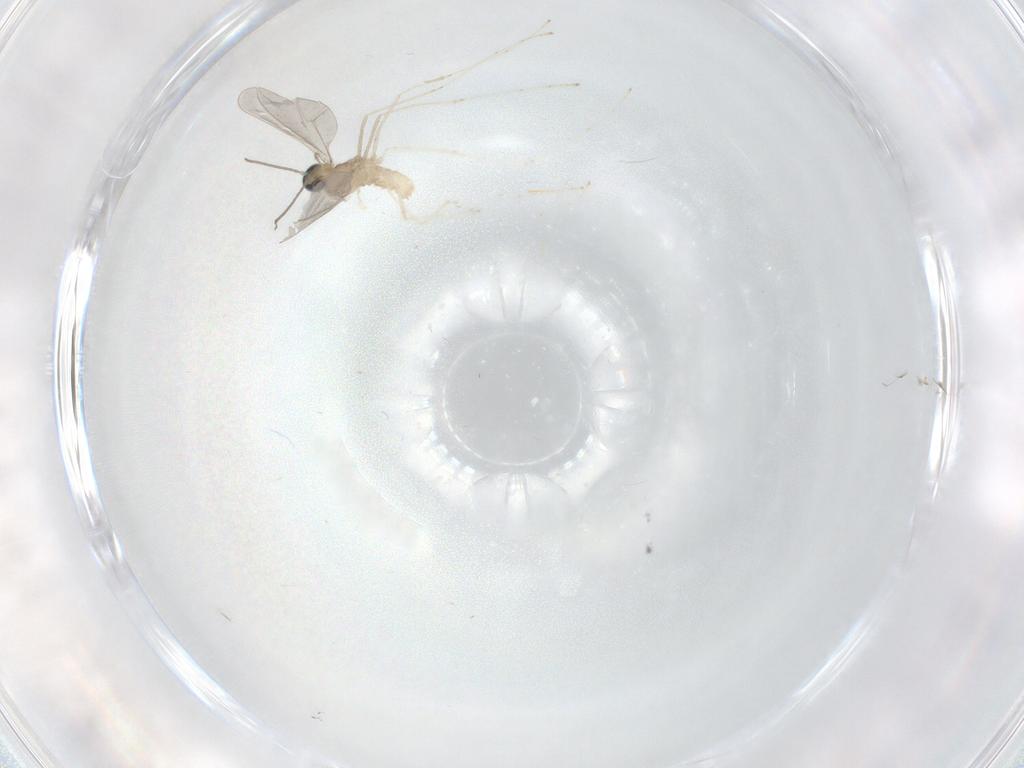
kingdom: Animalia
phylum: Arthropoda
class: Insecta
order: Diptera
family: Cecidomyiidae
